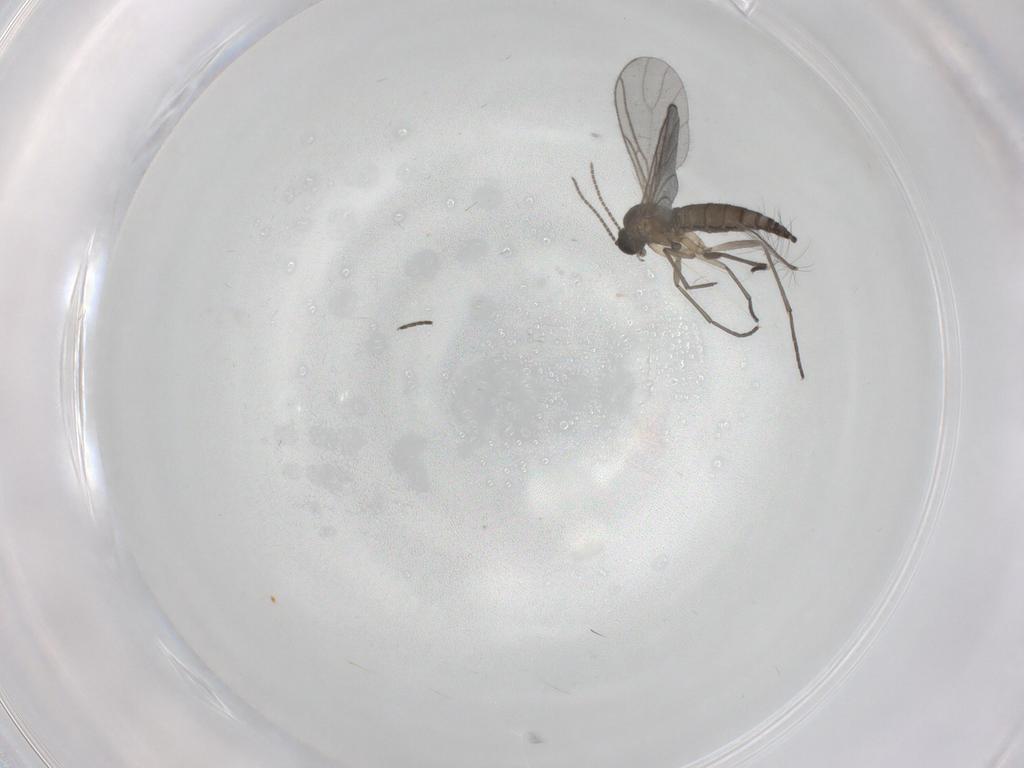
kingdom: Animalia
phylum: Arthropoda
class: Insecta
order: Diptera
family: Sciaridae
